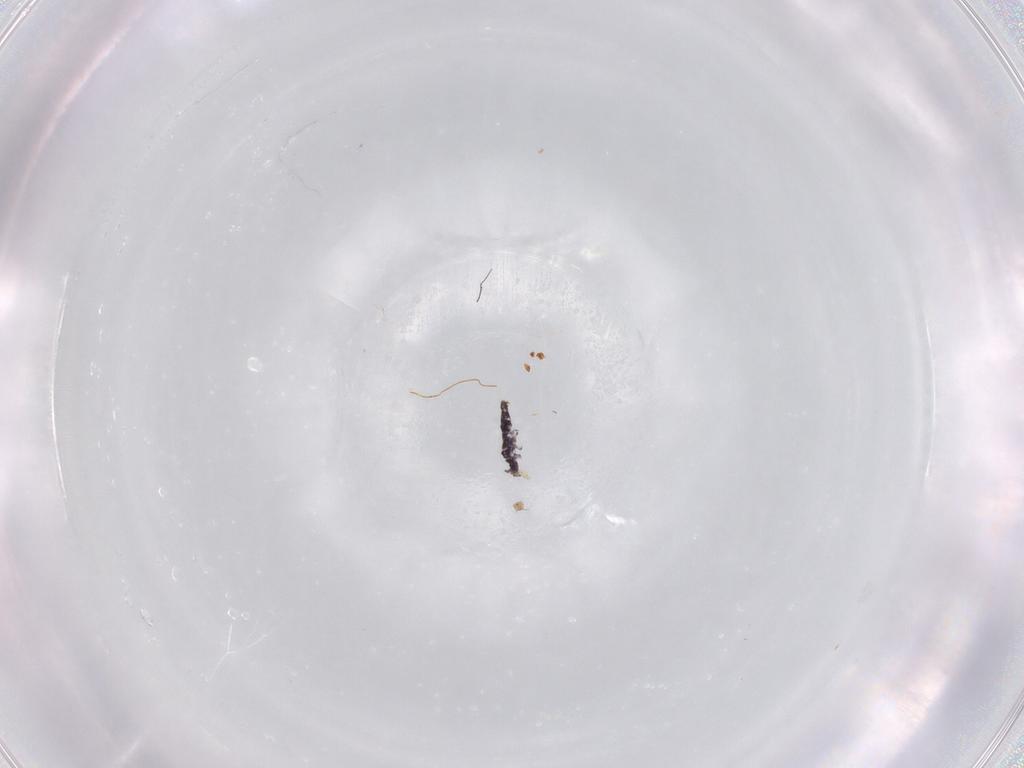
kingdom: Animalia
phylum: Arthropoda
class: Collembola
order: Entomobryomorpha
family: Isotomidae
